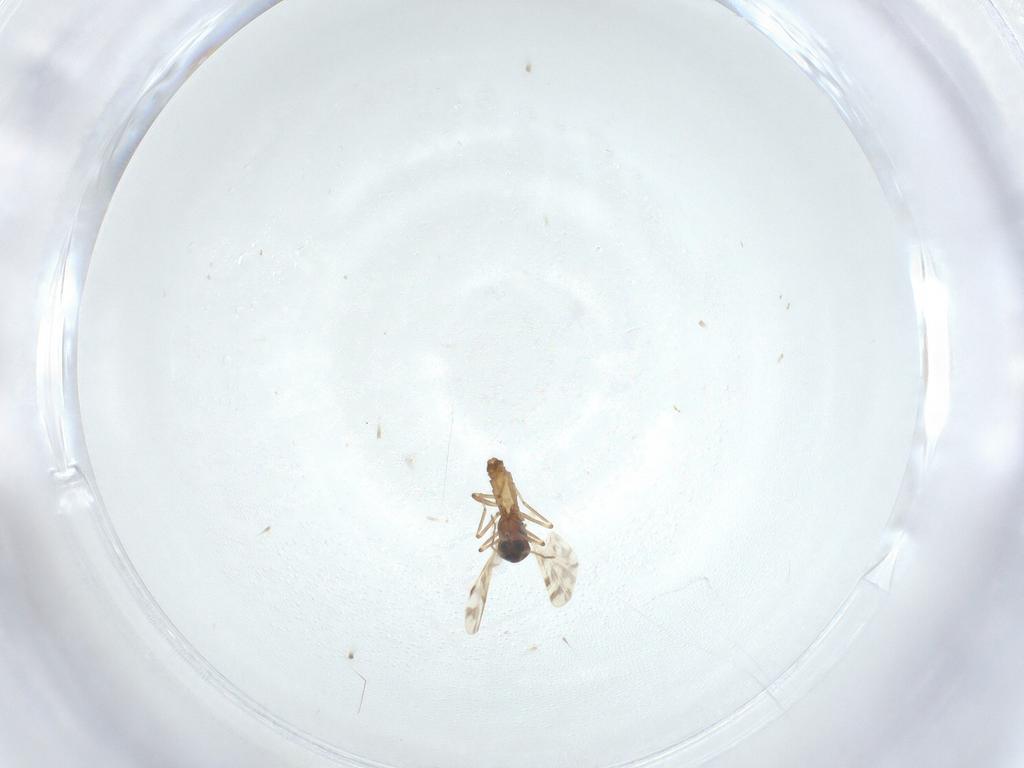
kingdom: Animalia
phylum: Arthropoda
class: Insecta
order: Diptera
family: Ceratopogonidae
